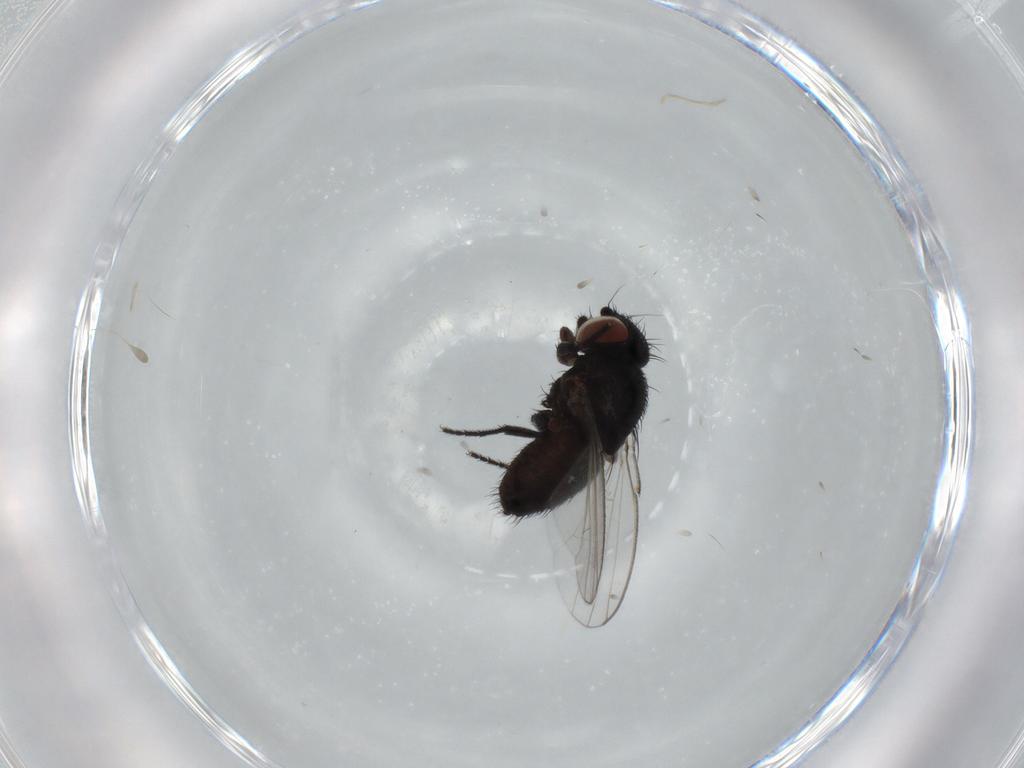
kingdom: Animalia
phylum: Arthropoda
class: Insecta
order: Diptera
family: Milichiidae
